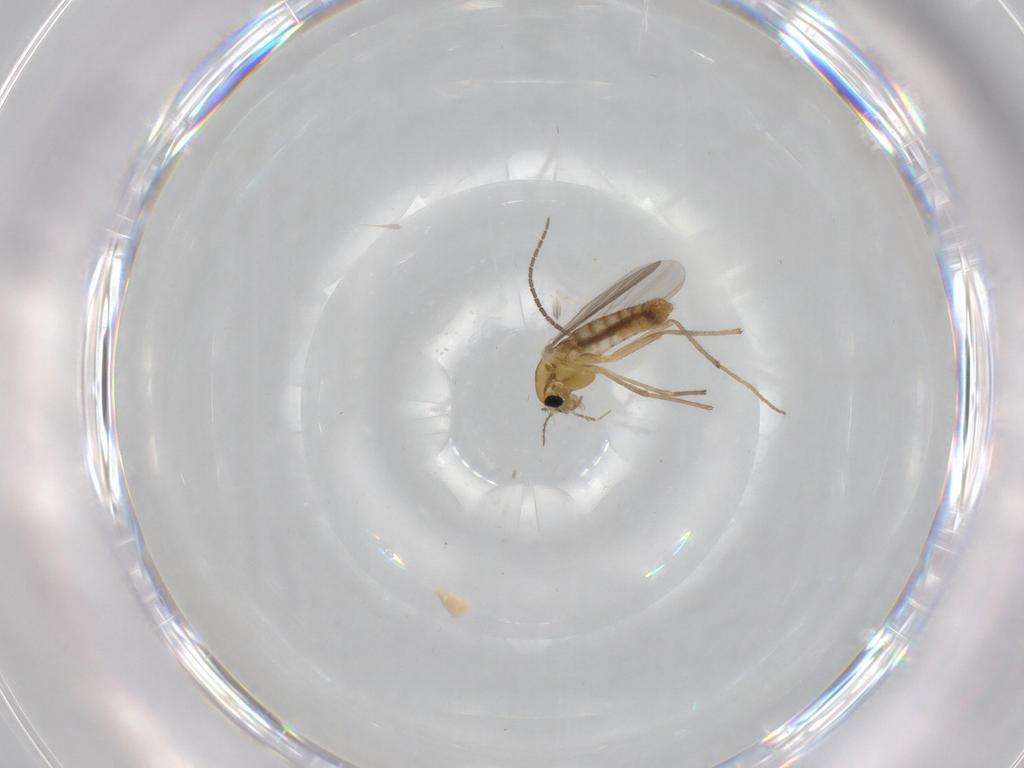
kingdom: Animalia
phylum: Arthropoda
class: Insecta
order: Diptera
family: Cecidomyiidae
